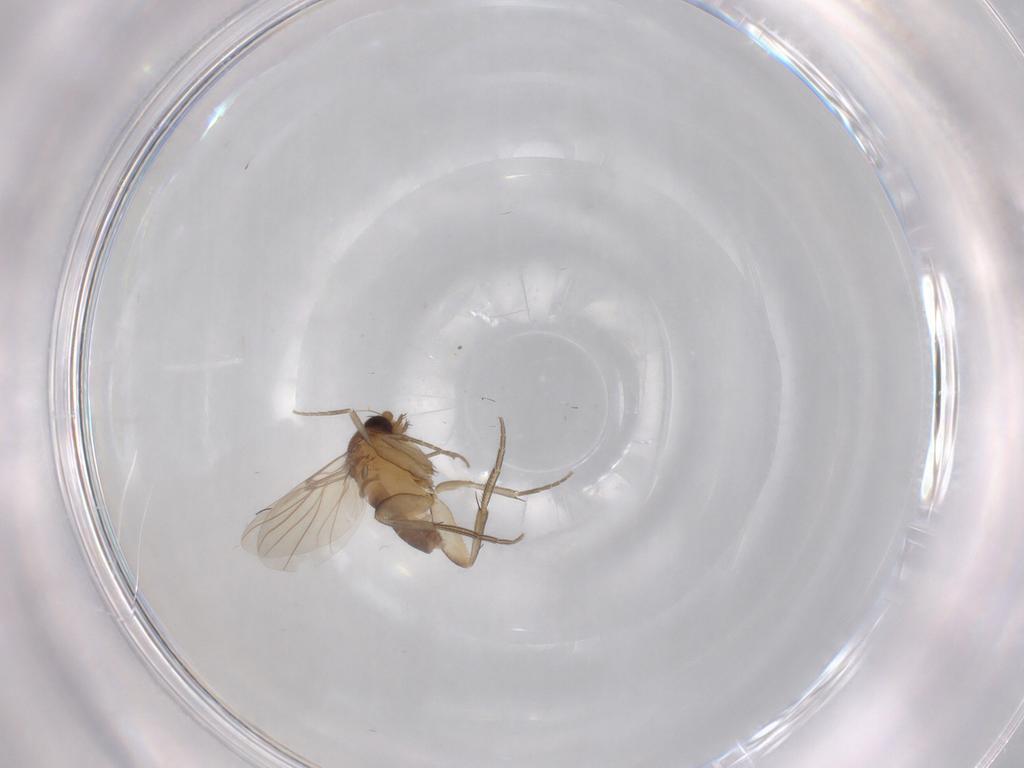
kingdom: Animalia
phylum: Arthropoda
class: Insecta
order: Diptera
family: Phoridae
